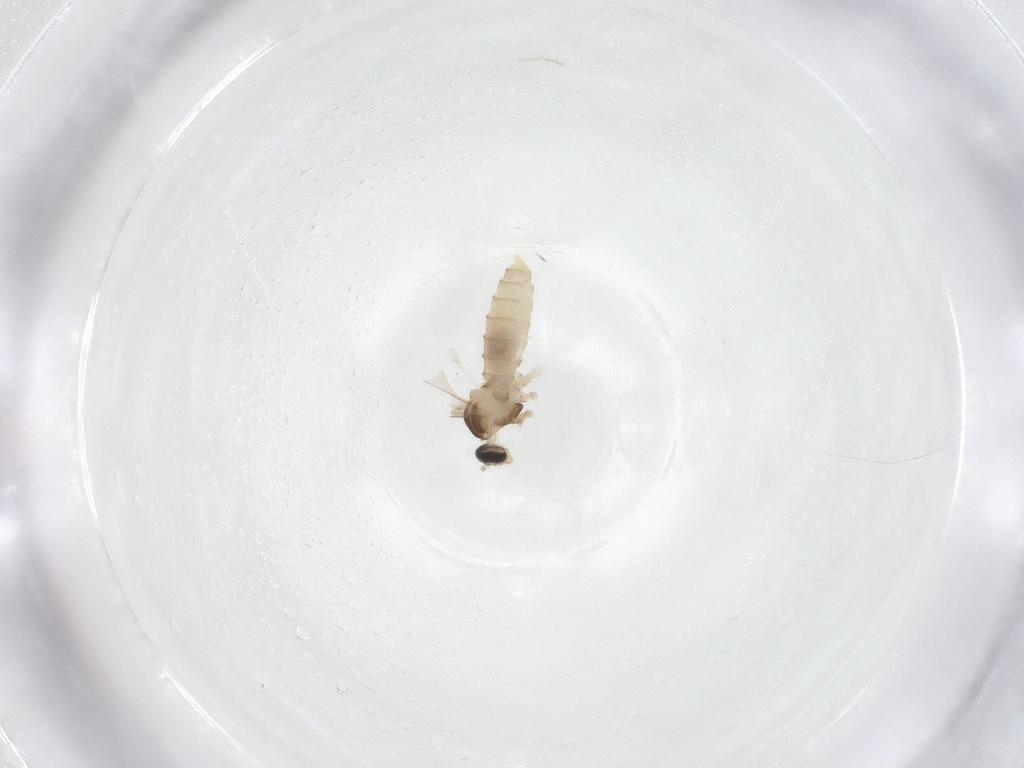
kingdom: Animalia
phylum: Arthropoda
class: Insecta
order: Diptera
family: Cecidomyiidae
